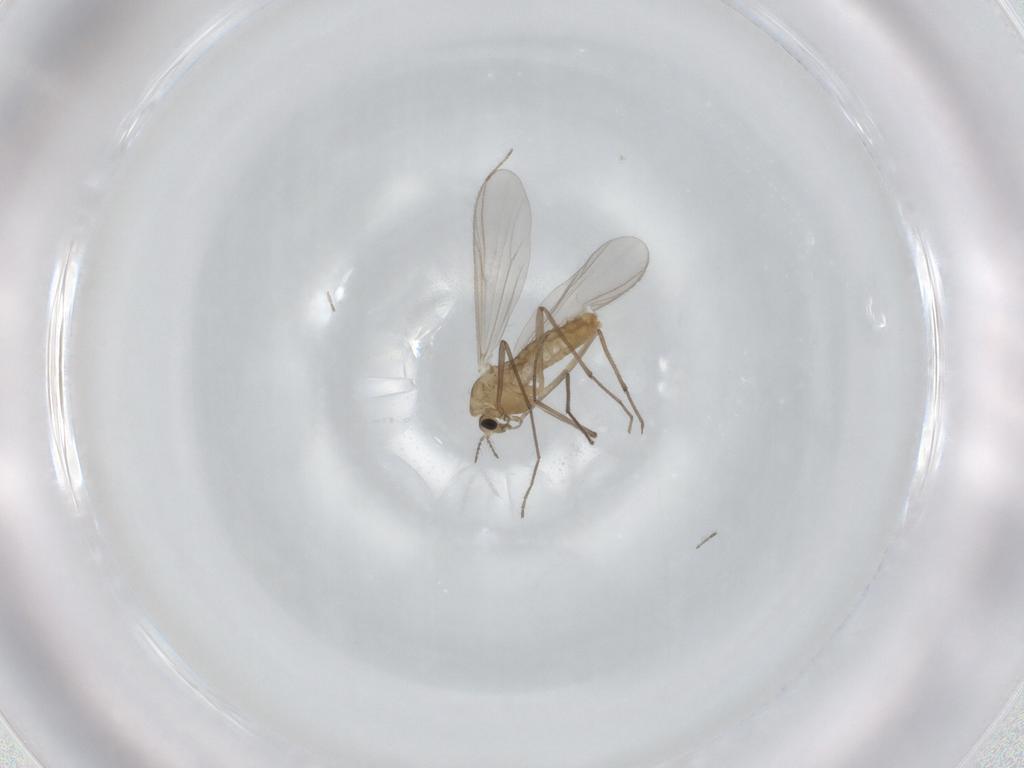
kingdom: Animalia
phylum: Arthropoda
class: Insecta
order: Diptera
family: Chironomidae
